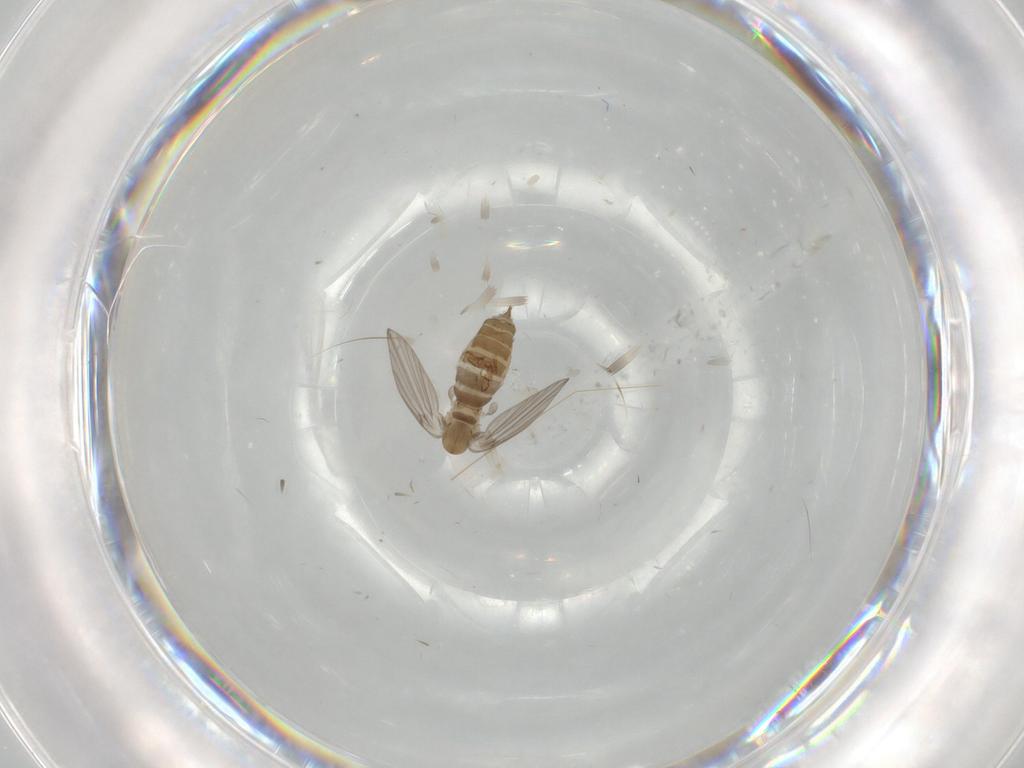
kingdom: Animalia
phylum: Arthropoda
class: Insecta
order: Diptera
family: Psychodidae
